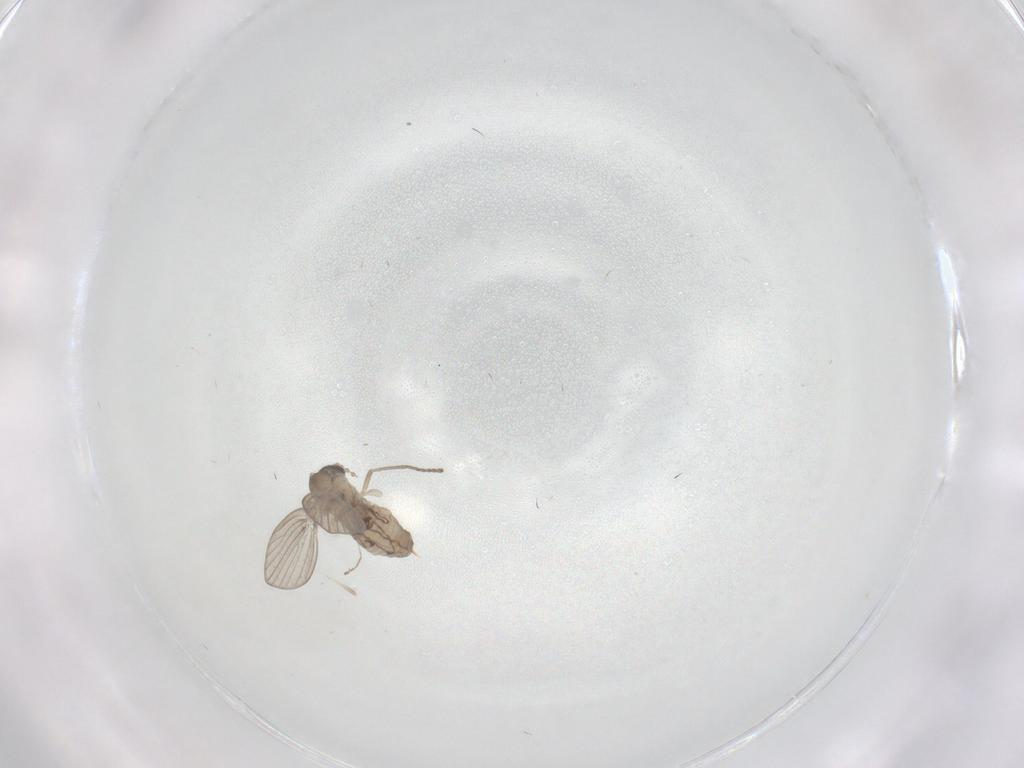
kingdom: Animalia
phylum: Arthropoda
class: Insecta
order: Diptera
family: Psychodidae
